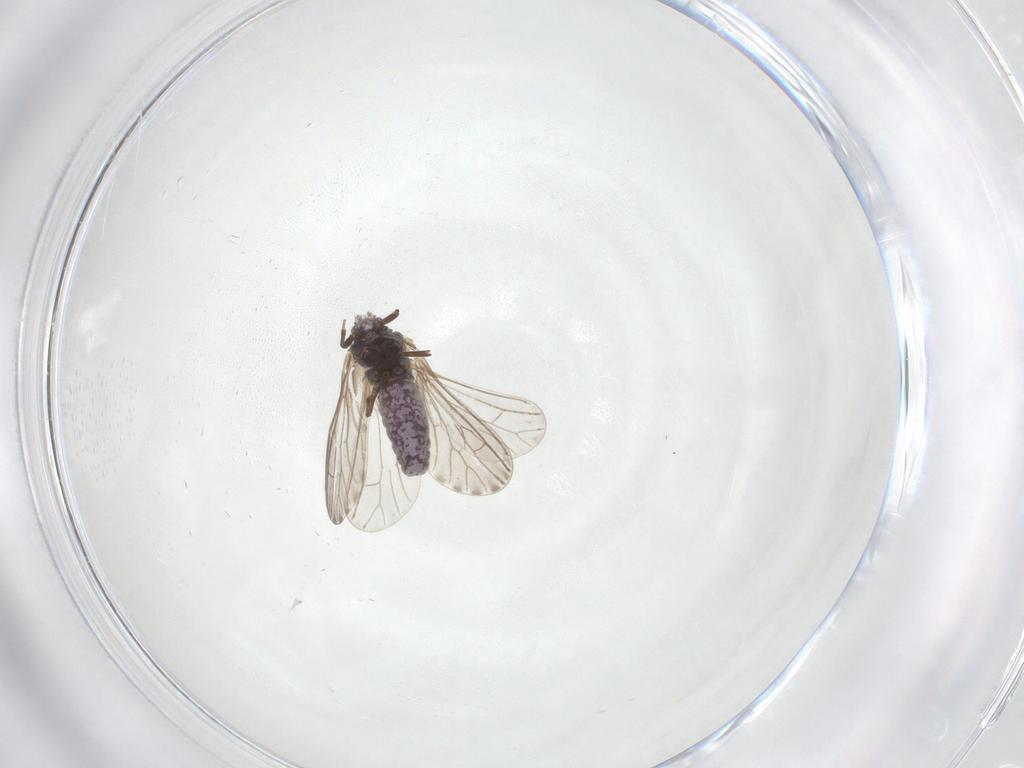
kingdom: Animalia
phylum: Arthropoda
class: Insecta
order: Neuroptera
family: Coniopterygidae
